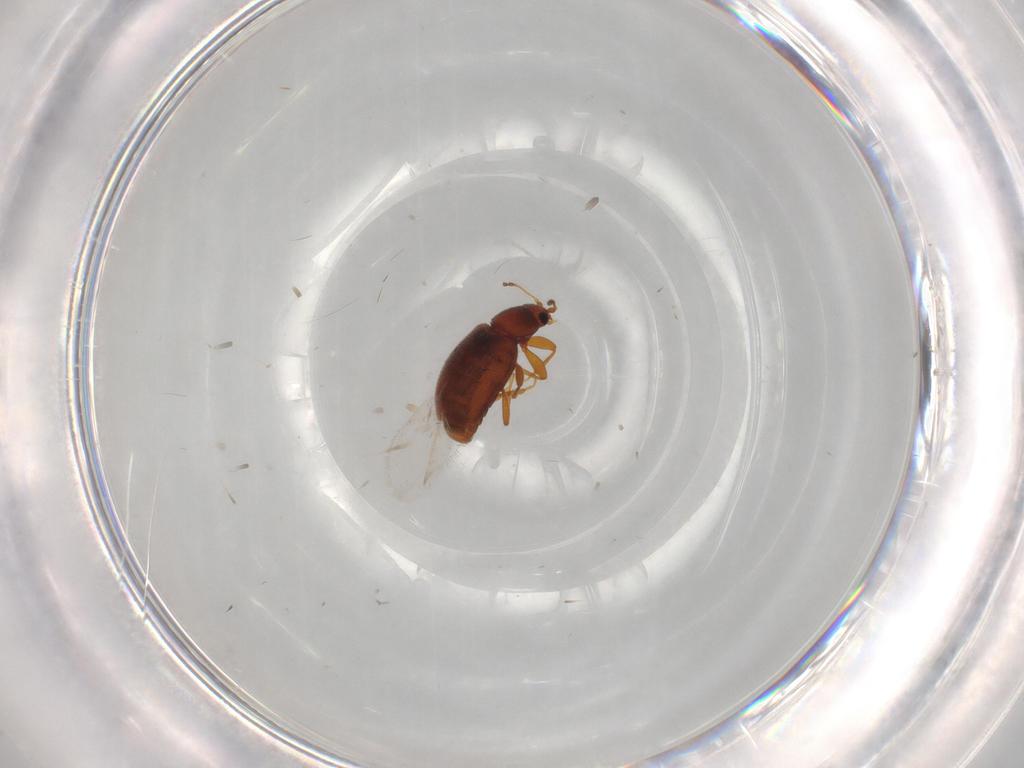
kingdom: Animalia
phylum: Arthropoda
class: Insecta
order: Coleoptera
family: Latridiidae
